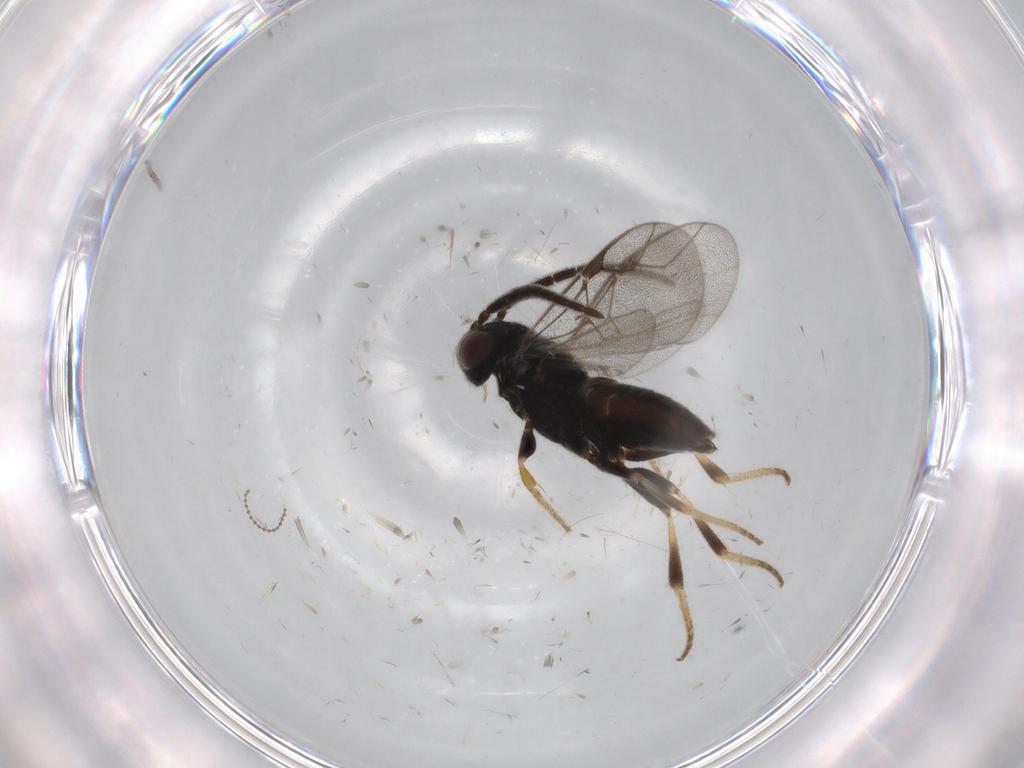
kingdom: Animalia
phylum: Arthropoda
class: Insecta
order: Hymenoptera
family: Dryinidae
